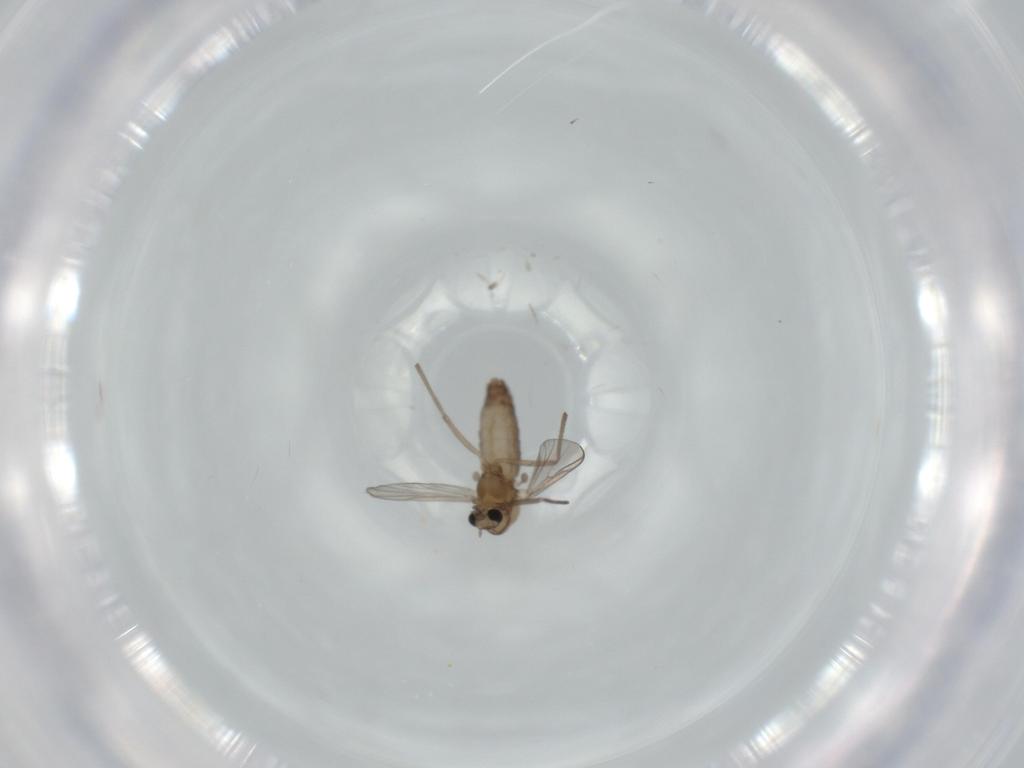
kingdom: Animalia
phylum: Arthropoda
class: Insecta
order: Diptera
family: Chironomidae
